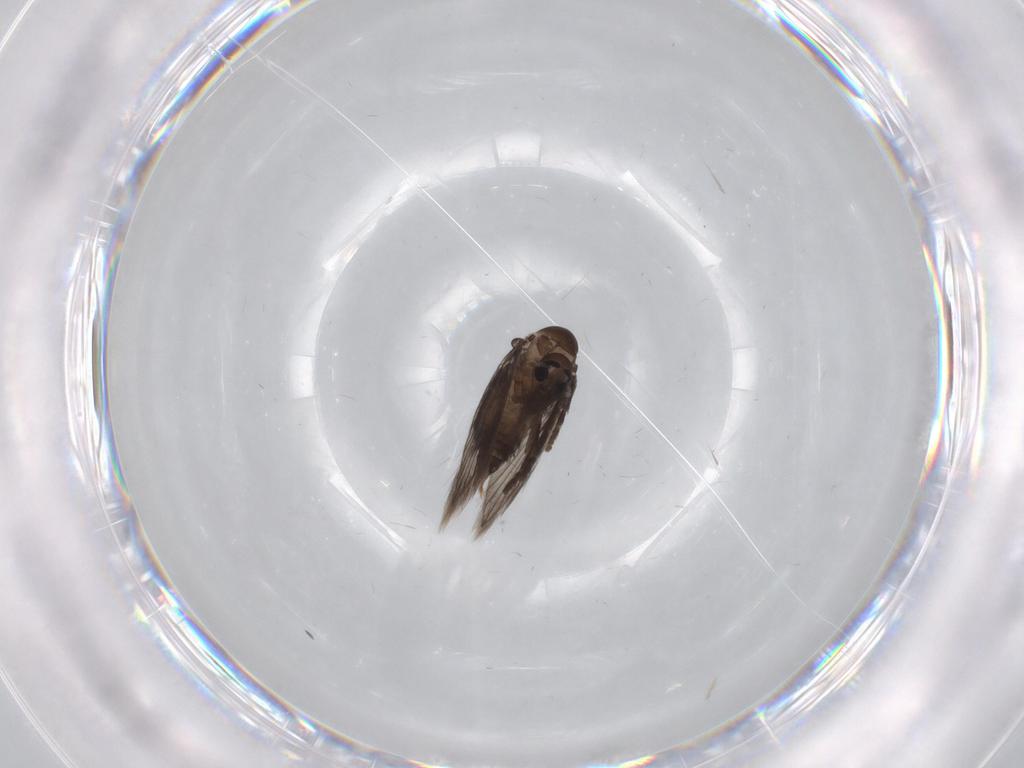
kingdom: Animalia
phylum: Arthropoda
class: Insecta
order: Diptera
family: Psychodidae
